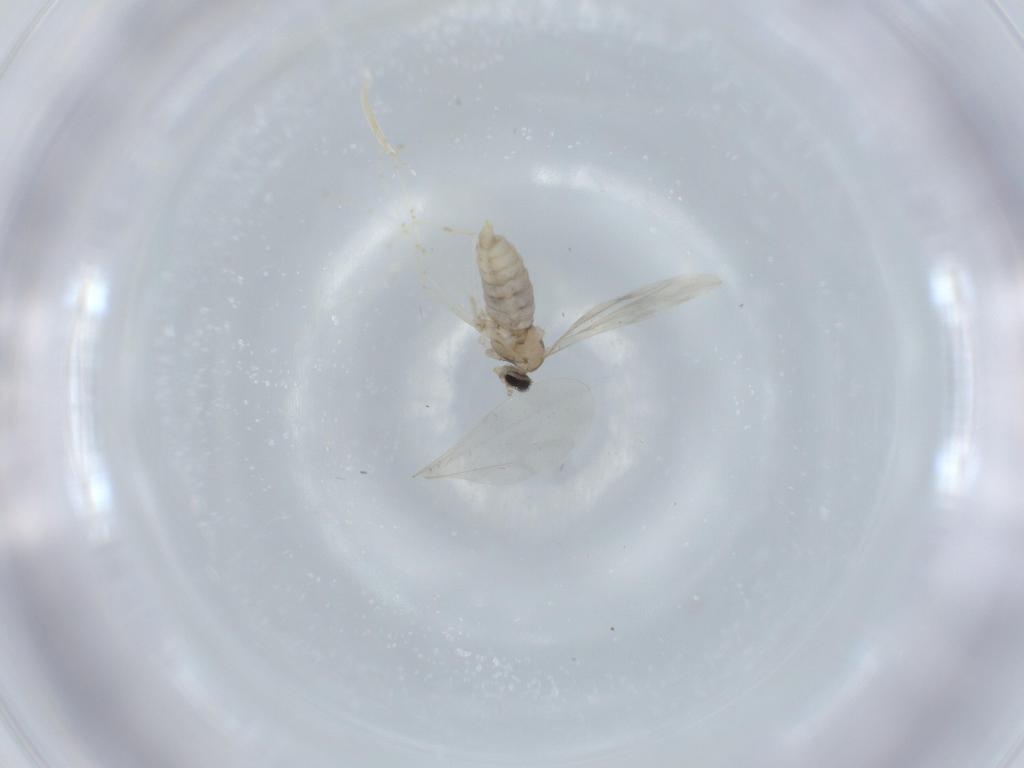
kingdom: Animalia
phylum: Arthropoda
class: Insecta
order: Diptera
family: Cecidomyiidae
